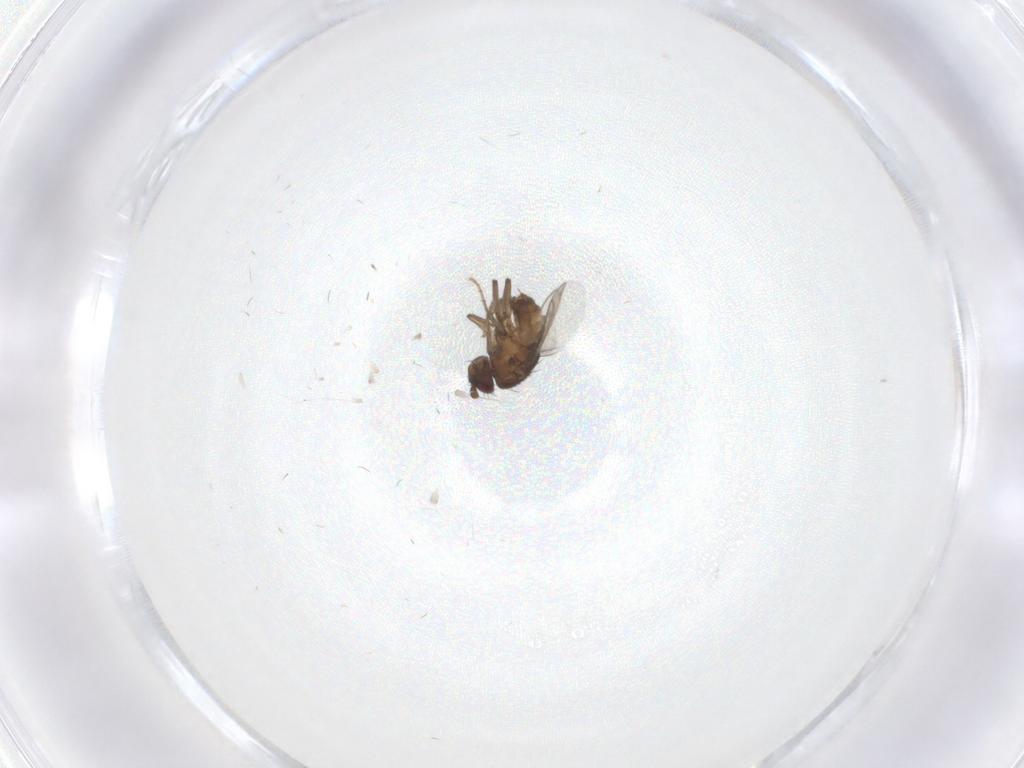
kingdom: Animalia
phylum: Arthropoda
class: Insecta
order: Diptera
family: Sphaeroceridae
